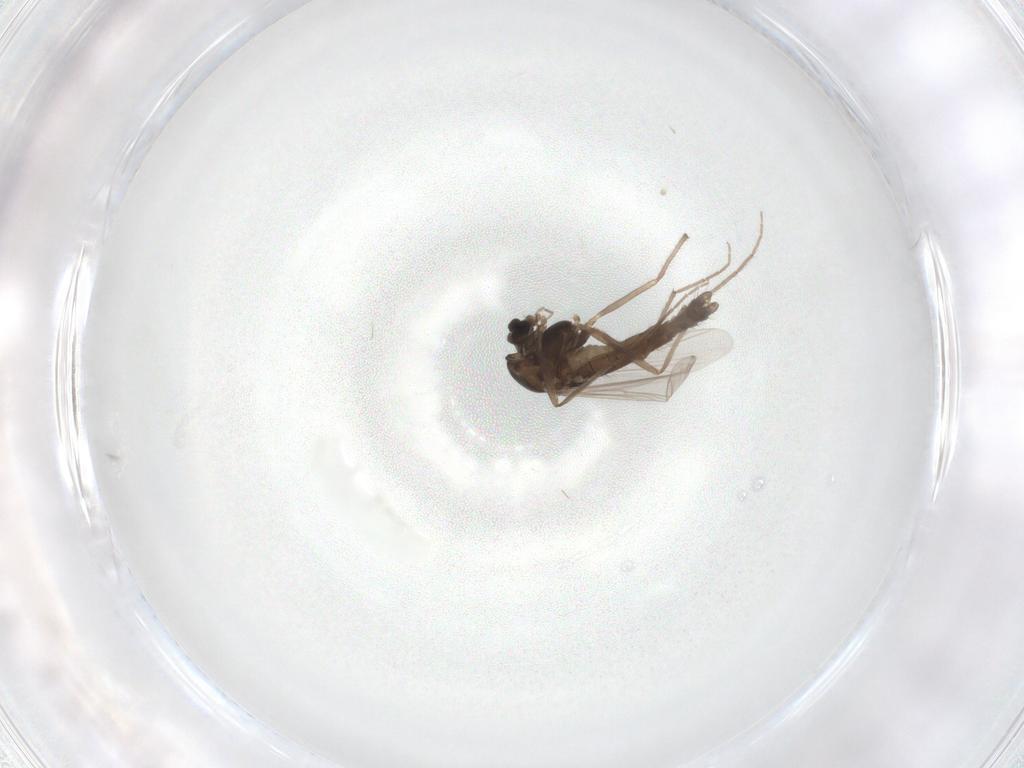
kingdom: Animalia
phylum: Arthropoda
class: Insecta
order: Diptera
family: Chironomidae
